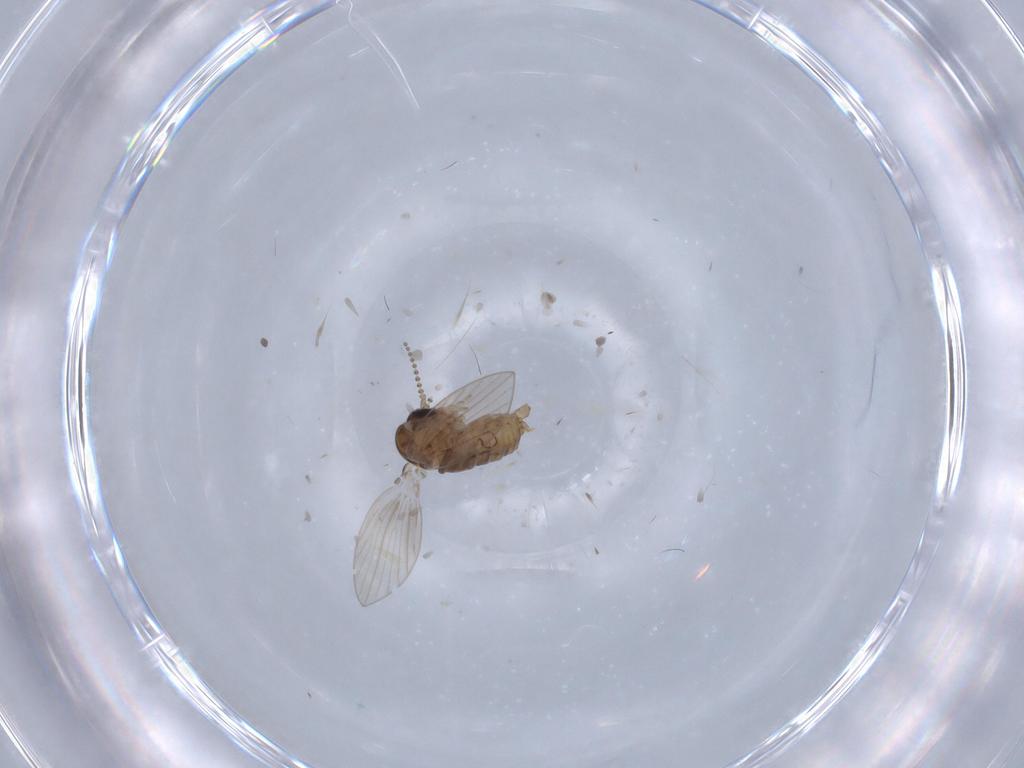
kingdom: Animalia
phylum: Arthropoda
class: Insecta
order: Diptera
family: Psychodidae
